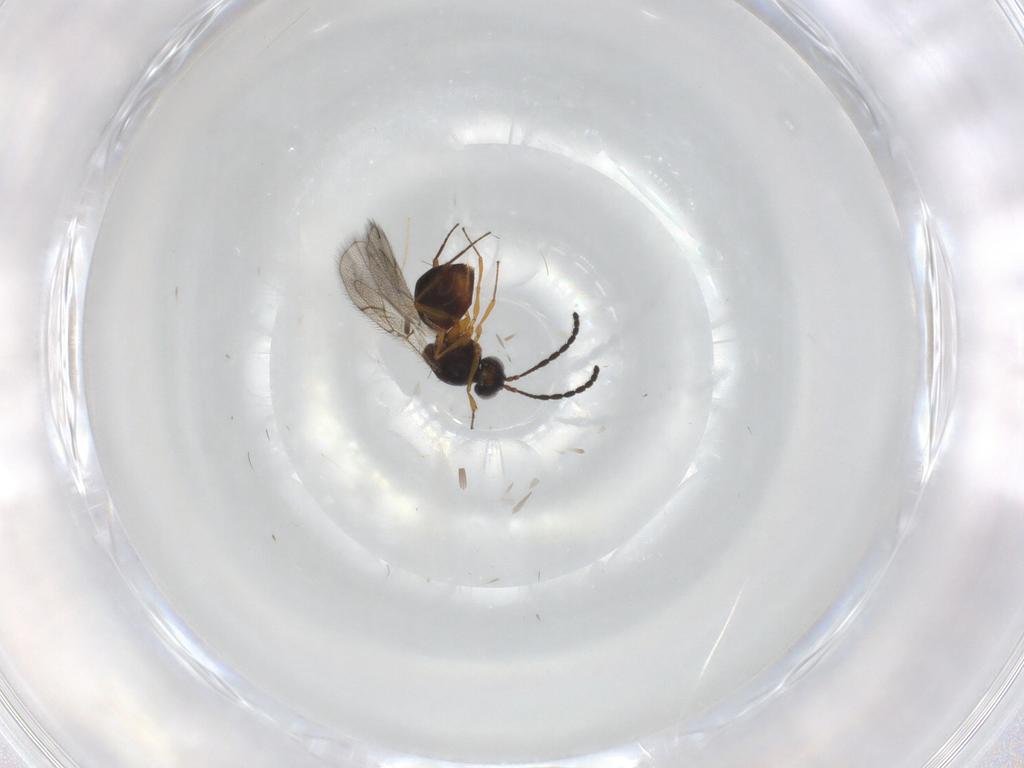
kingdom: Animalia
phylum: Arthropoda
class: Insecta
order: Hymenoptera
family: Figitidae
